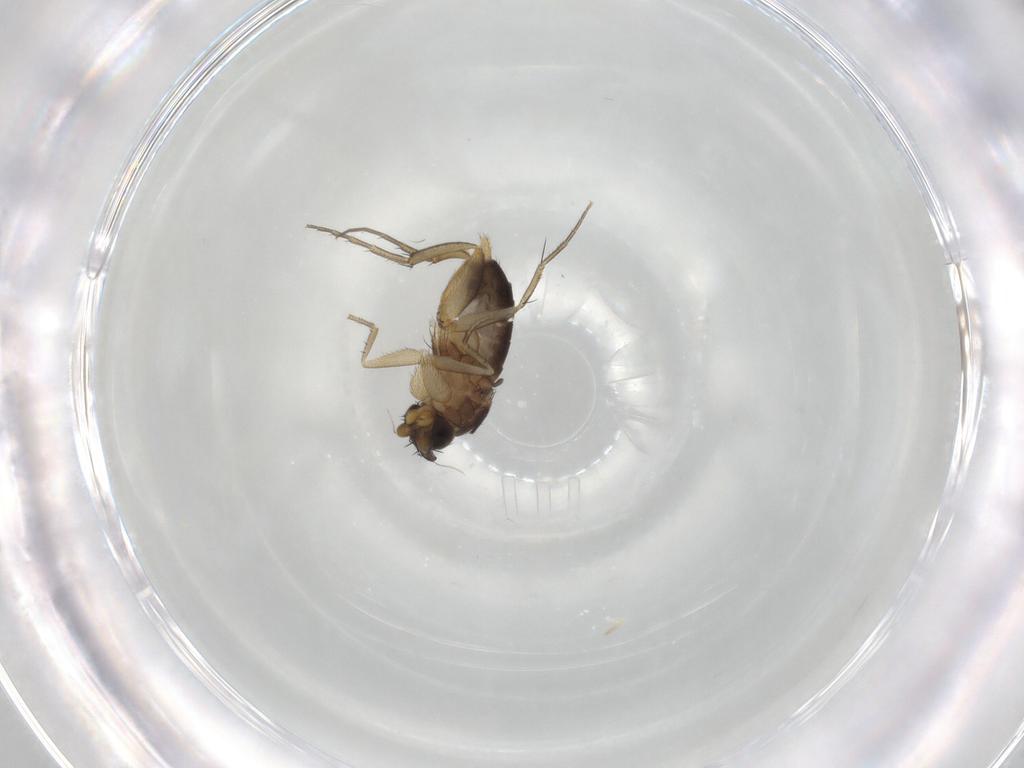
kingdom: Animalia
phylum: Arthropoda
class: Insecta
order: Diptera
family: Phoridae
